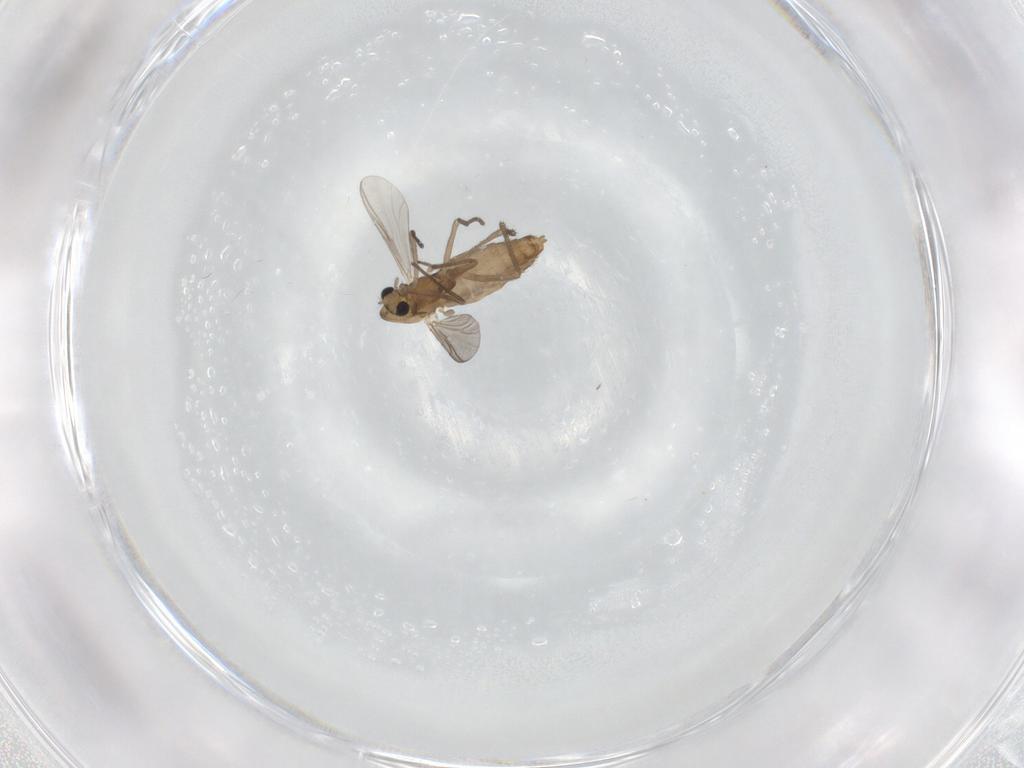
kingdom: Animalia
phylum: Arthropoda
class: Insecta
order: Diptera
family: Chironomidae
